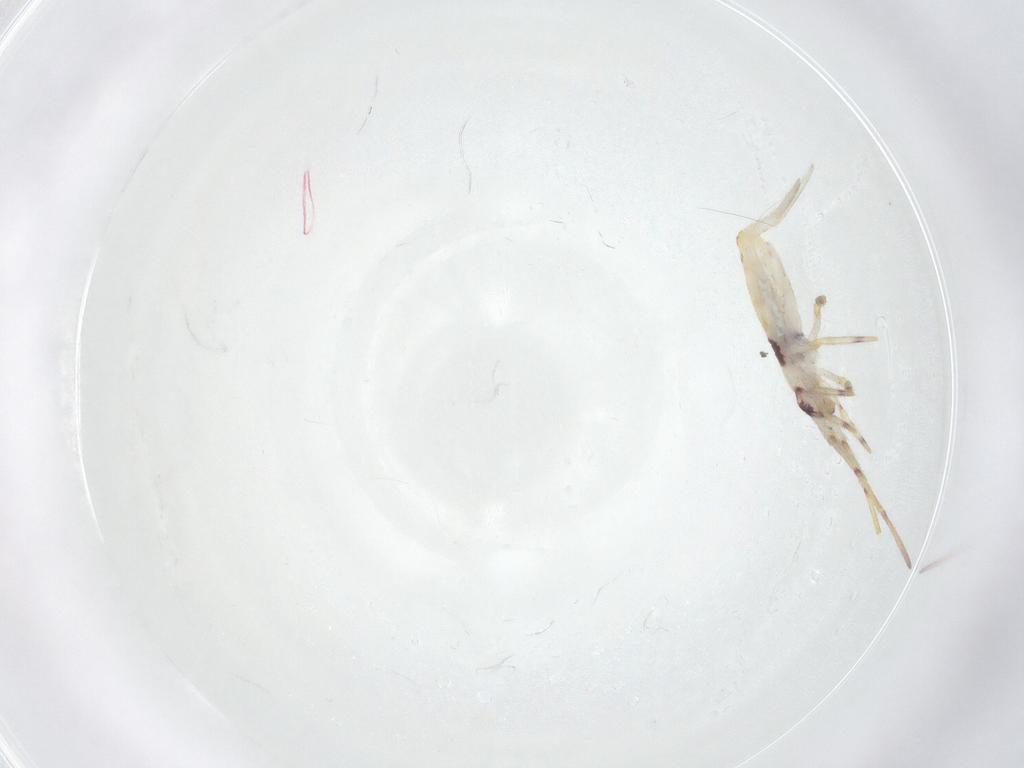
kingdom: Animalia
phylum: Arthropoda
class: Collembola
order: Entomobryomorpha
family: Entomobryidae
